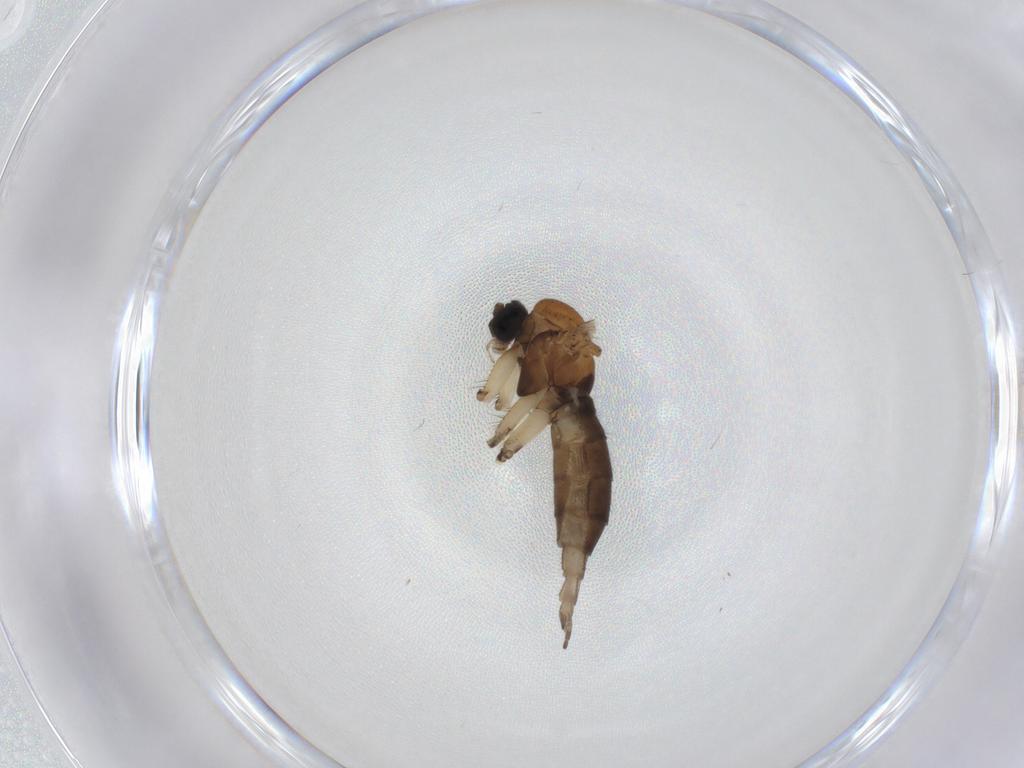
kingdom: Animalia
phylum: Arthropoda
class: Insecta
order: Diptera
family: Sciaridae
